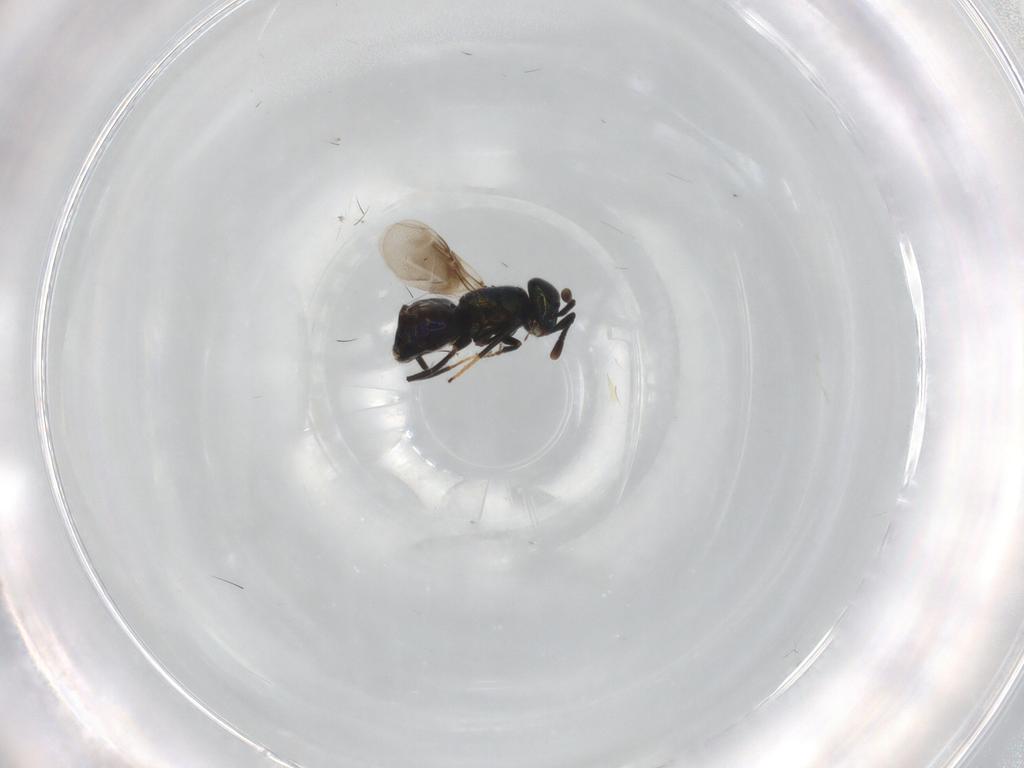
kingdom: Animalia
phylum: Arthropoda
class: Insecta
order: Hymenoptera
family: Encyrtidae
